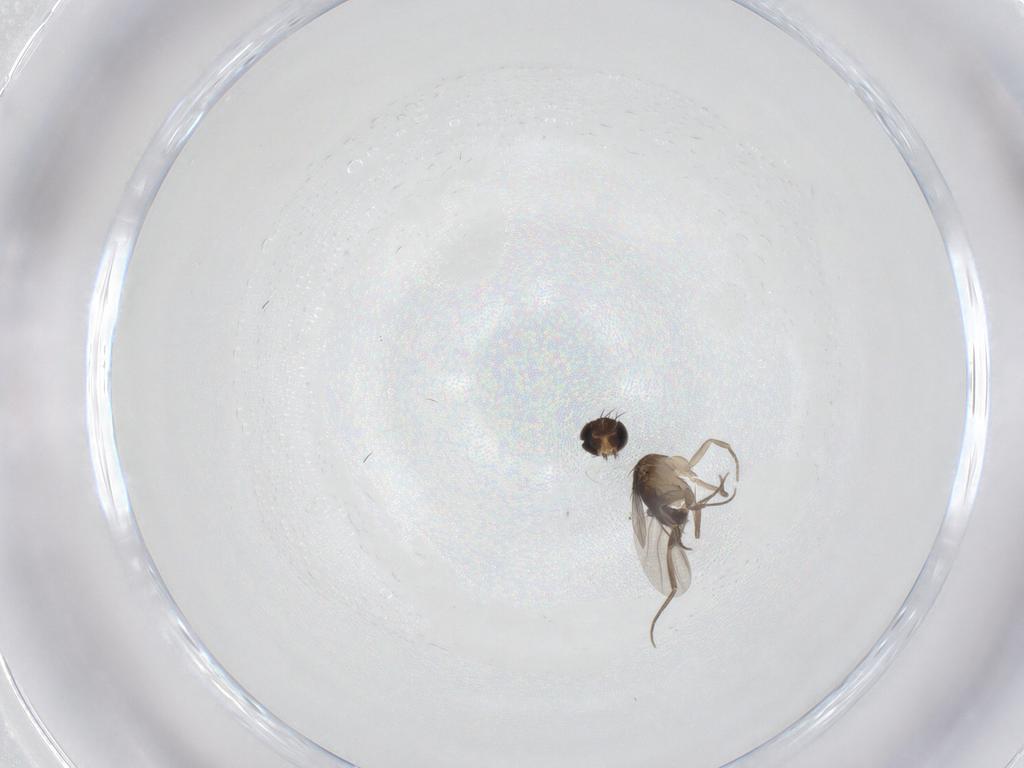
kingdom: Animalia
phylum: Arthropoda
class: Insecta
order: Diptera
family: Phoridae
